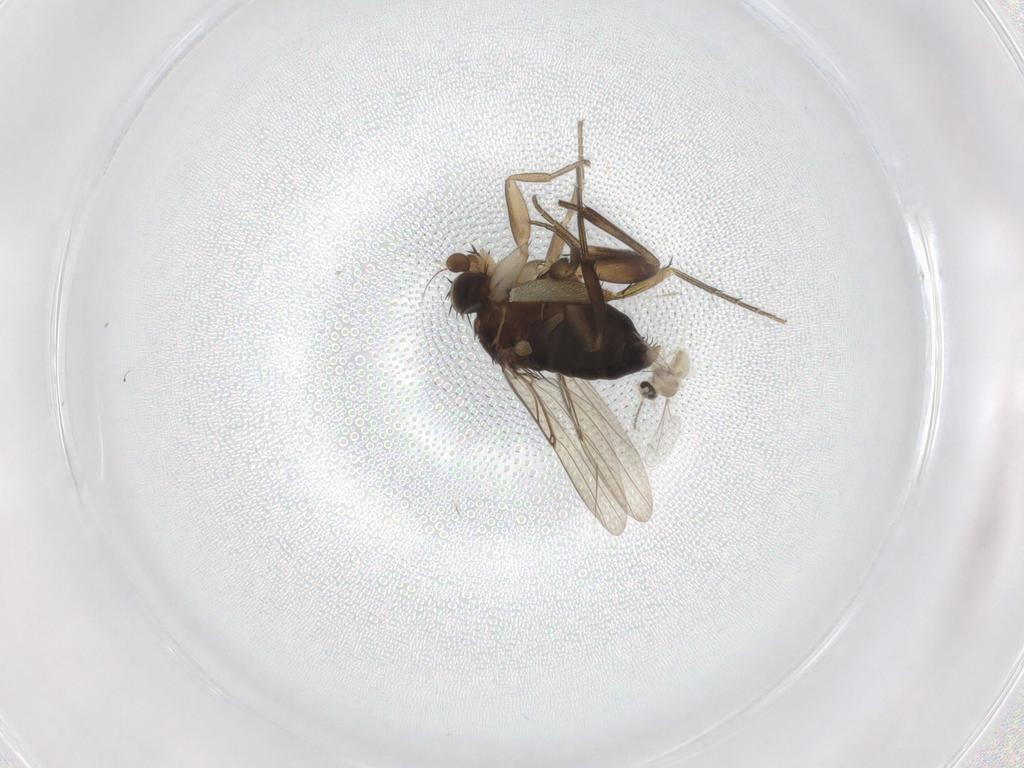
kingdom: Animalia
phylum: Arthropoda
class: Insecta
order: Diptera
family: Phoridae
